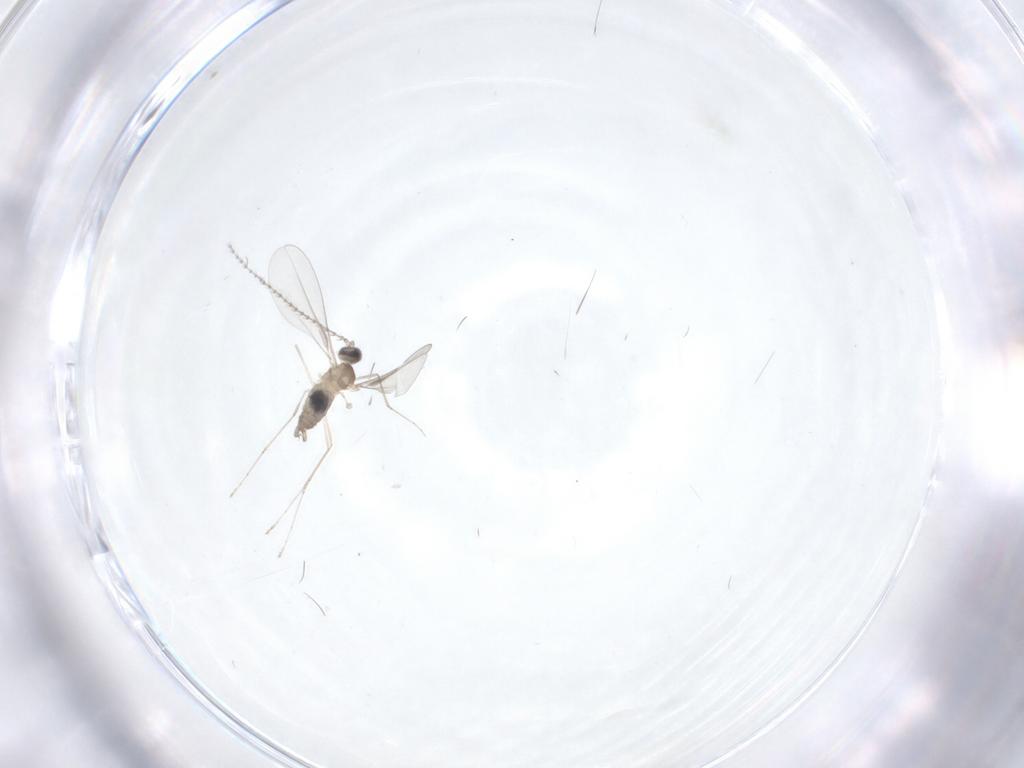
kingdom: Animalia
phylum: Arthropoda
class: Insecta
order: Diptera
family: Cecidomyiidae
